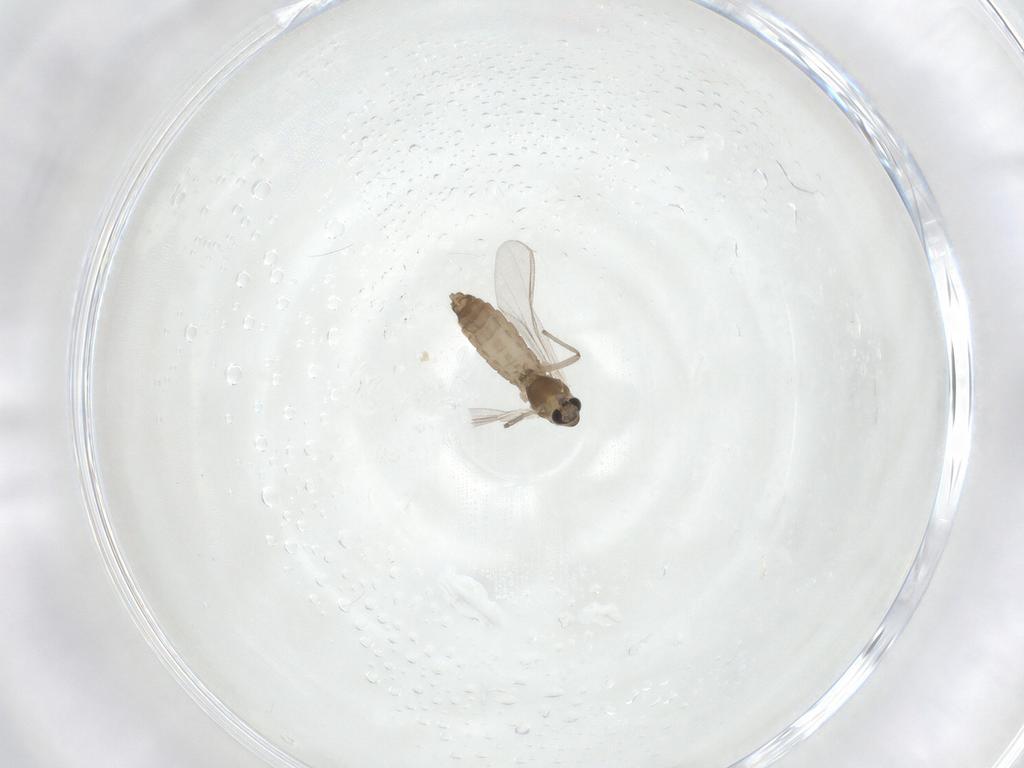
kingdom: Animalia
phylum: Arthropoda
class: Insecta
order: Diptera
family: Chironomidae
